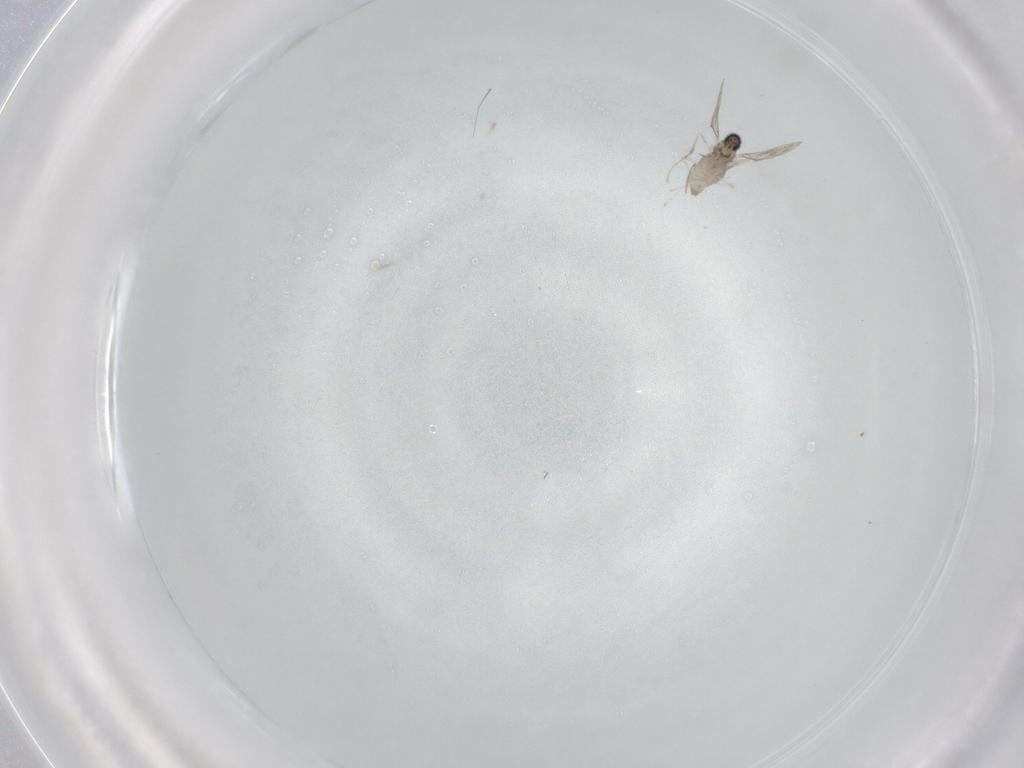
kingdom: Animalia
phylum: Arthropoda
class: Insecta
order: Diptera
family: Cecidomyiidae
